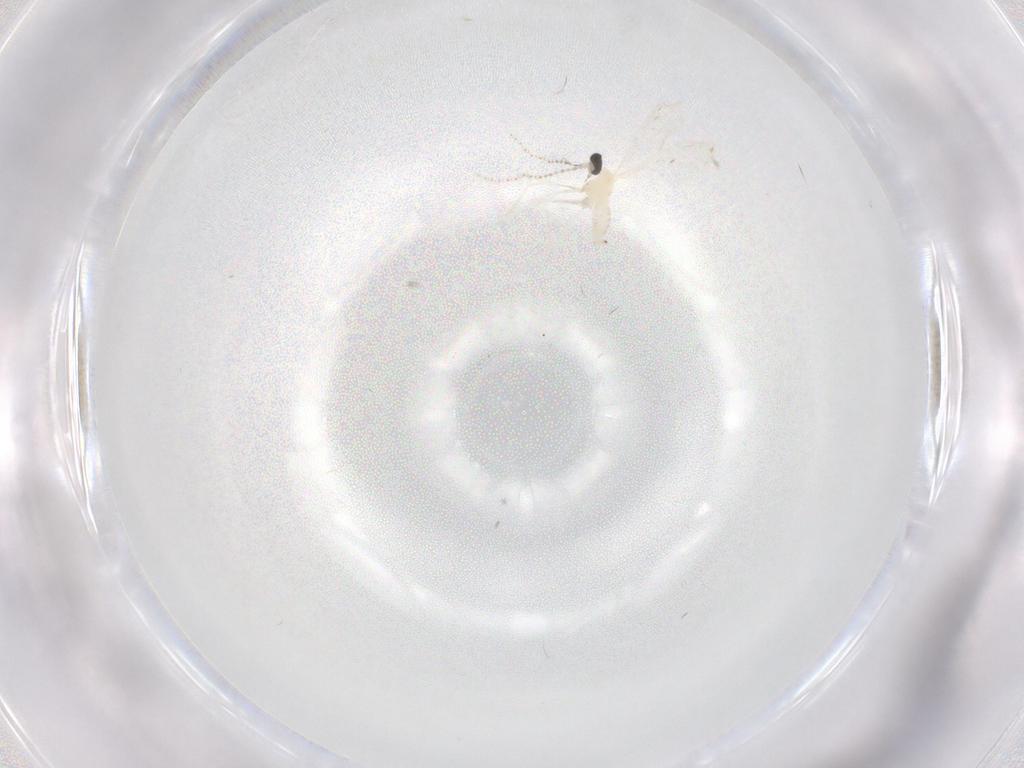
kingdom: Animalia
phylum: Arthropoda
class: Insecta
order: Diptera
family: Cecidomyiidae
